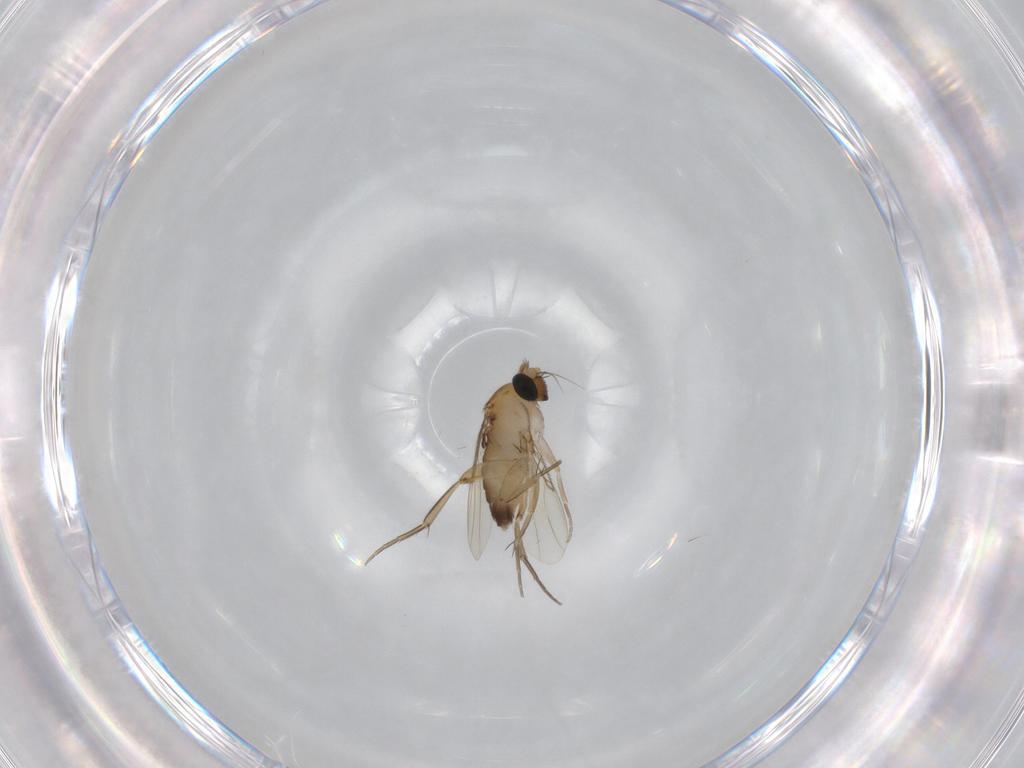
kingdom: Animalia
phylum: Arthropoda
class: Insecta
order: Diptera
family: Phoridae
